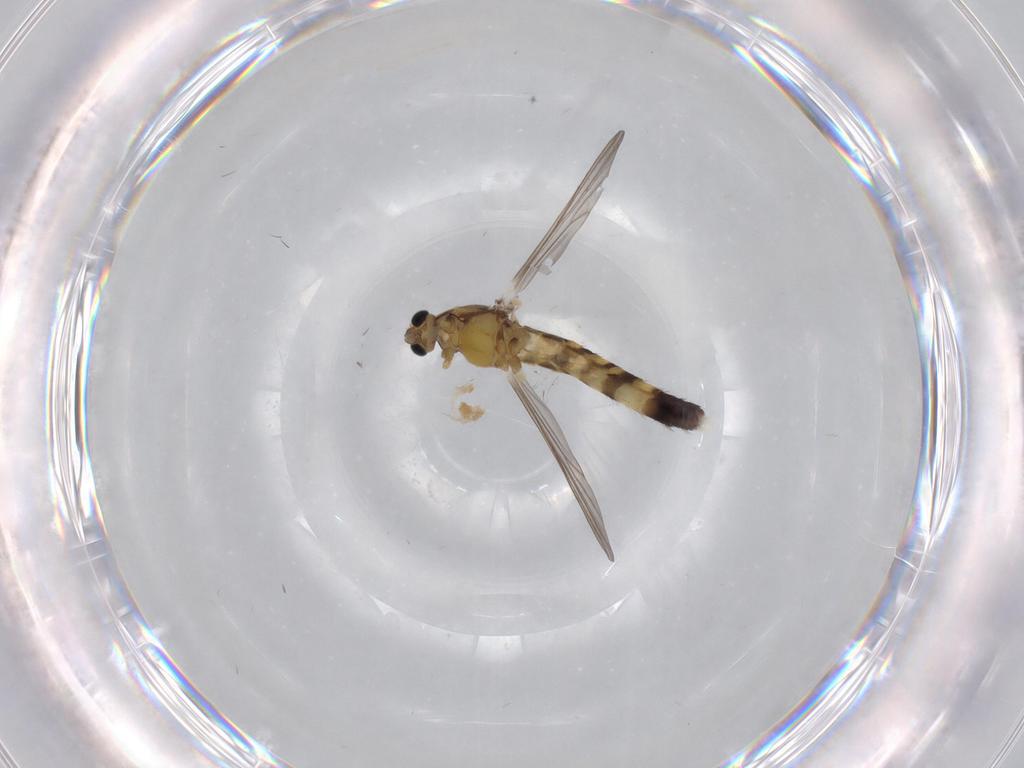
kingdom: Animalia
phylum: Arthropoda
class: Insecta
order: Diptera
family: Chironomidae
